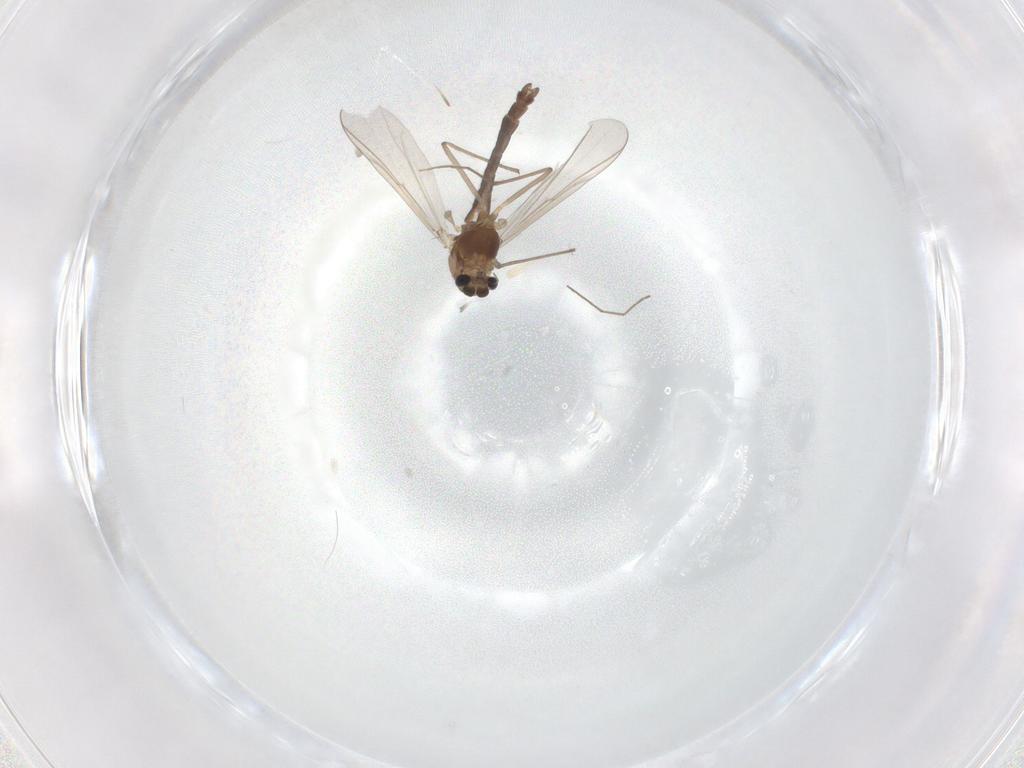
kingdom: Animalia
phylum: Arthropoda
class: Insecta
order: Diptera
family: Chironomidae
